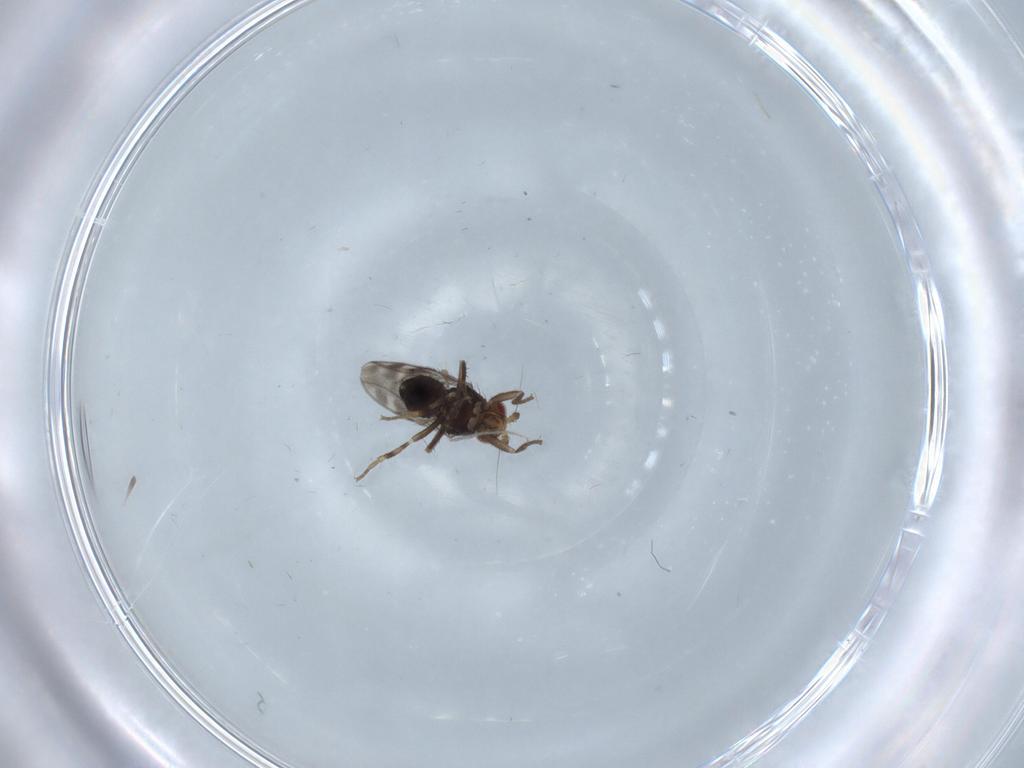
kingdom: Animalia
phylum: Arthropoda
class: Insecta
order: Diptera
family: Sphaeroceridae
